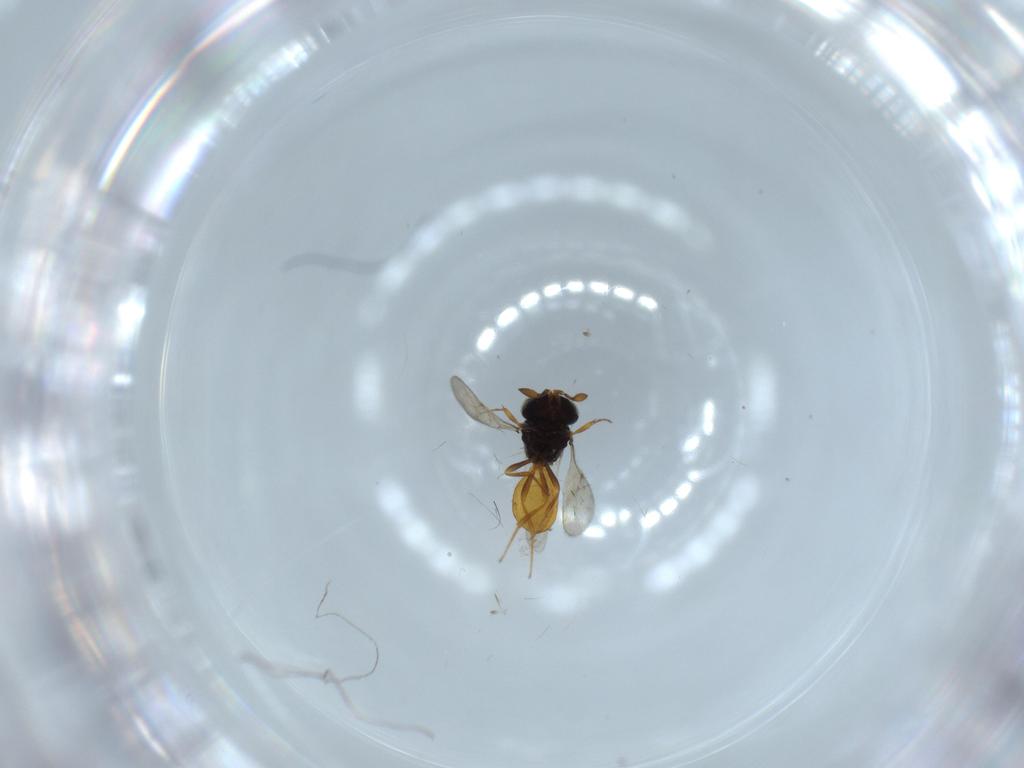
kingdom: Animalia
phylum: Arthropoda
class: Insecta
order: Hymenoptera
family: Scelionidae
